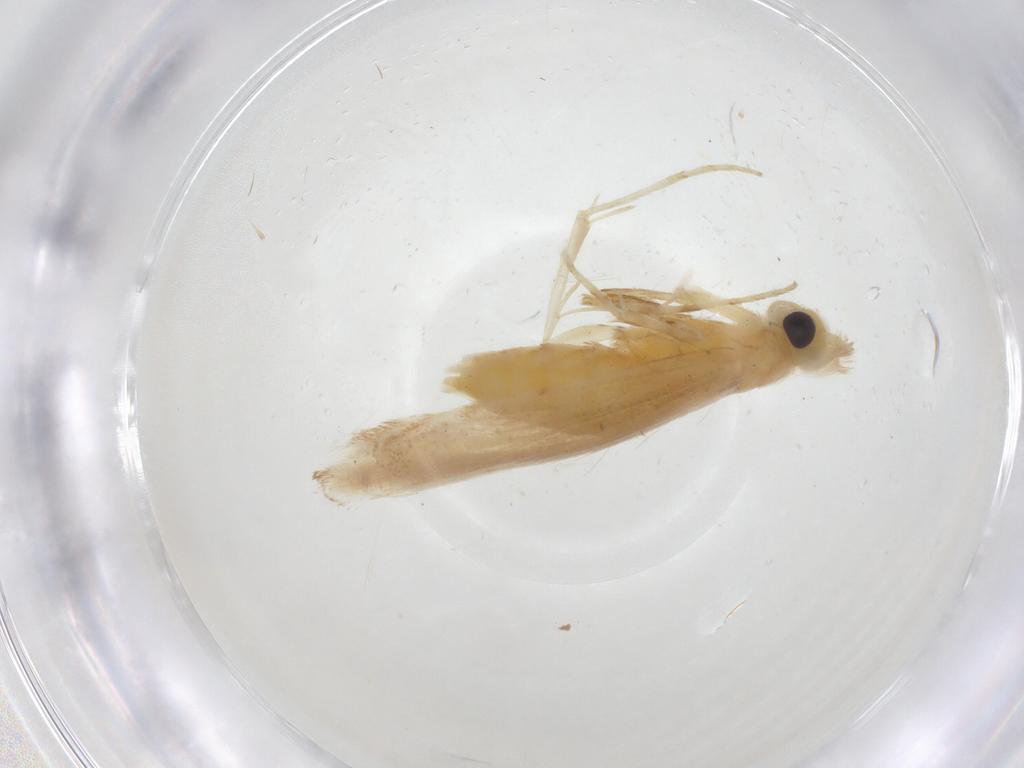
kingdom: Animalia
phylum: Arthropoda
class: Insecta
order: Lepidoptera
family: Gracillariidae
